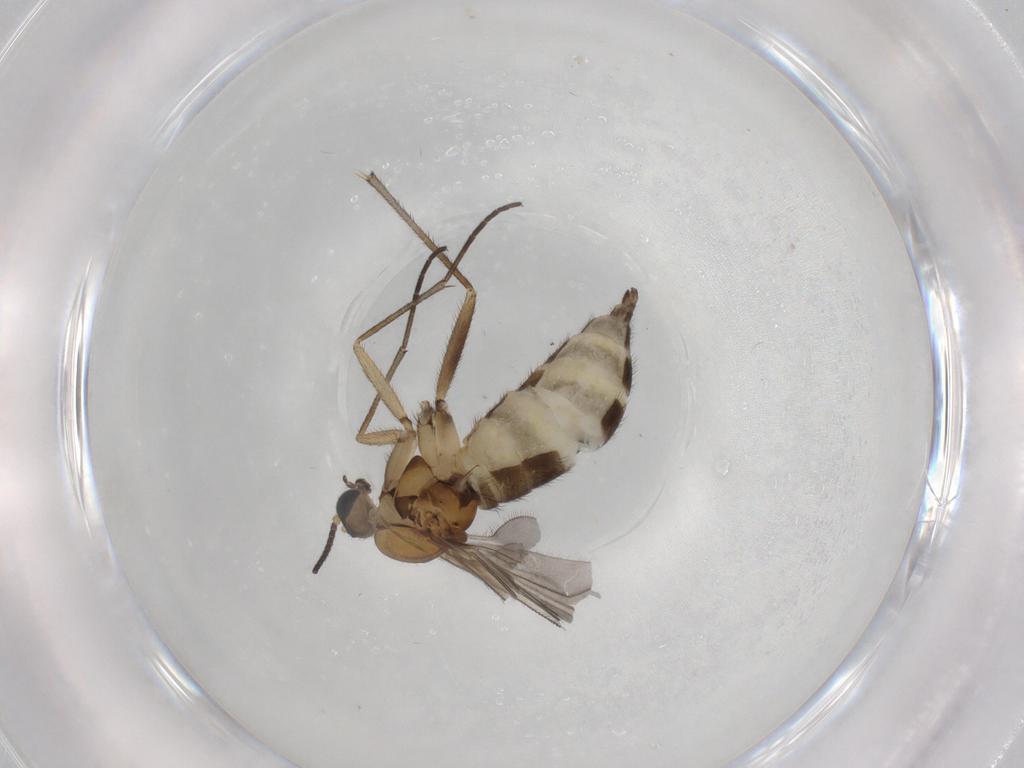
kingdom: Animalia
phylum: Arthropoda
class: Insecta
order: Diptera
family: Sciaridae
